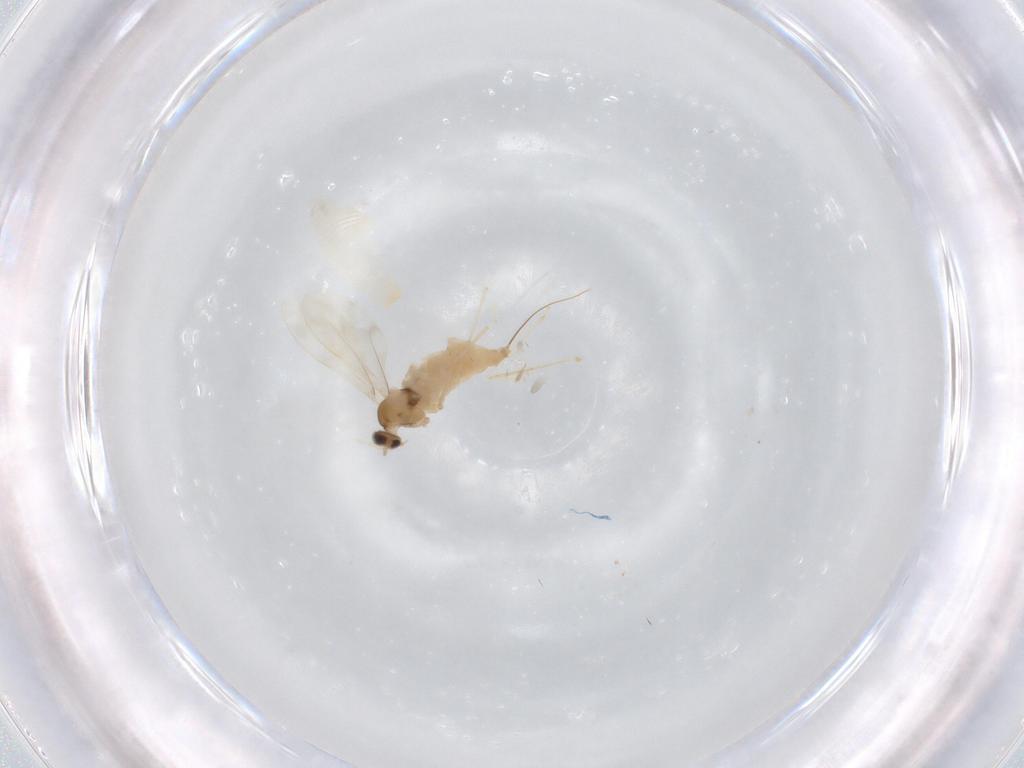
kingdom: Animalia
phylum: Arthropoda
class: Insecta
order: Diptera
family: Cecidomyiidae
